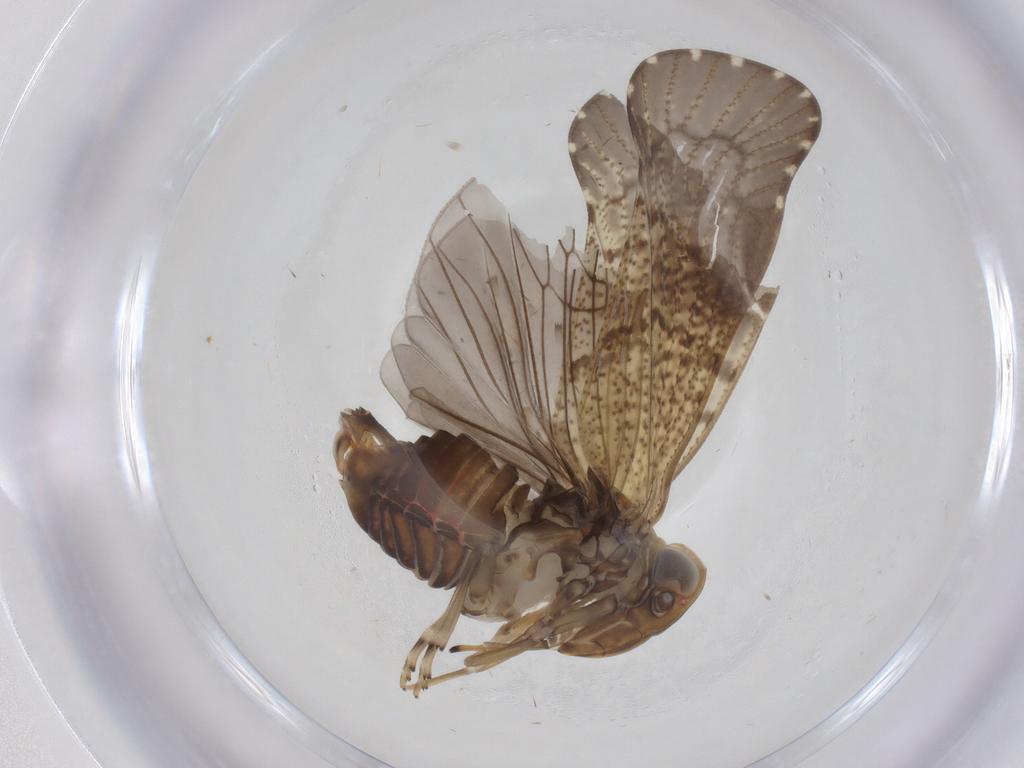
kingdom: Animalia
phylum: Arthropoda
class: Insecta
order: Hemiptera
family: Cixiidae
